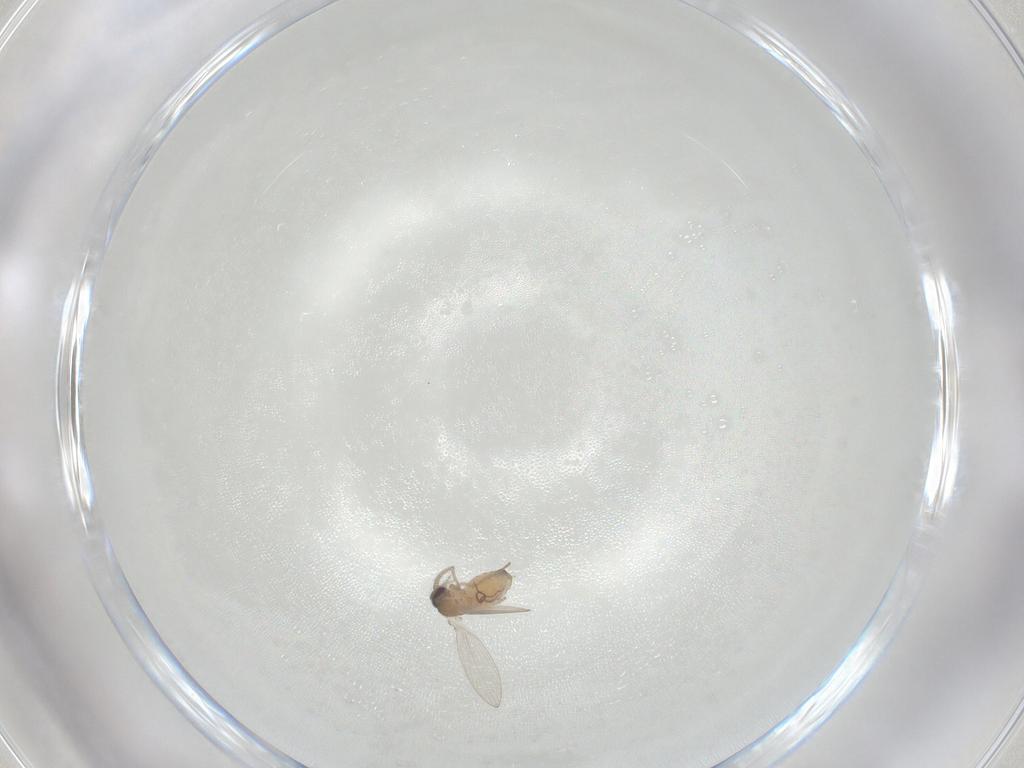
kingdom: Animalia
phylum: Arthropoda
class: Insecta
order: Diptera
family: Psychodidae
